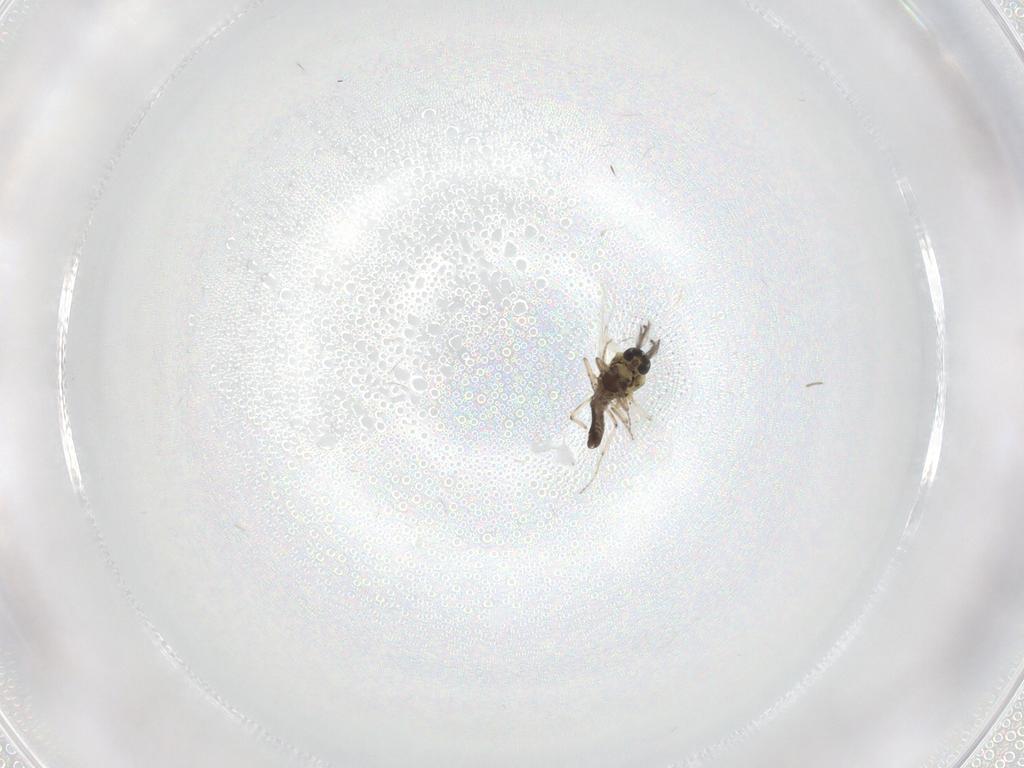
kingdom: Animalia
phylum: Arthropoda
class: Insecta
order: Diptera
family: Ceratopogonidae
